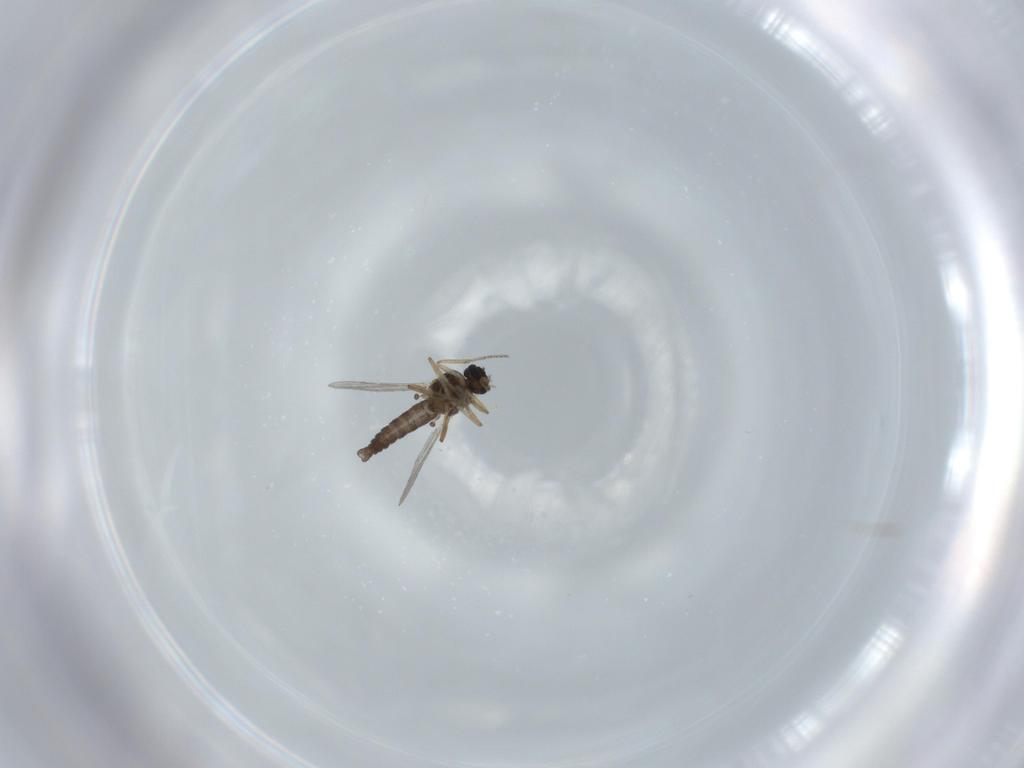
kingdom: Animalia
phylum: Arthropoda
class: Insecta
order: Diptera
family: Ceratopogonidae
